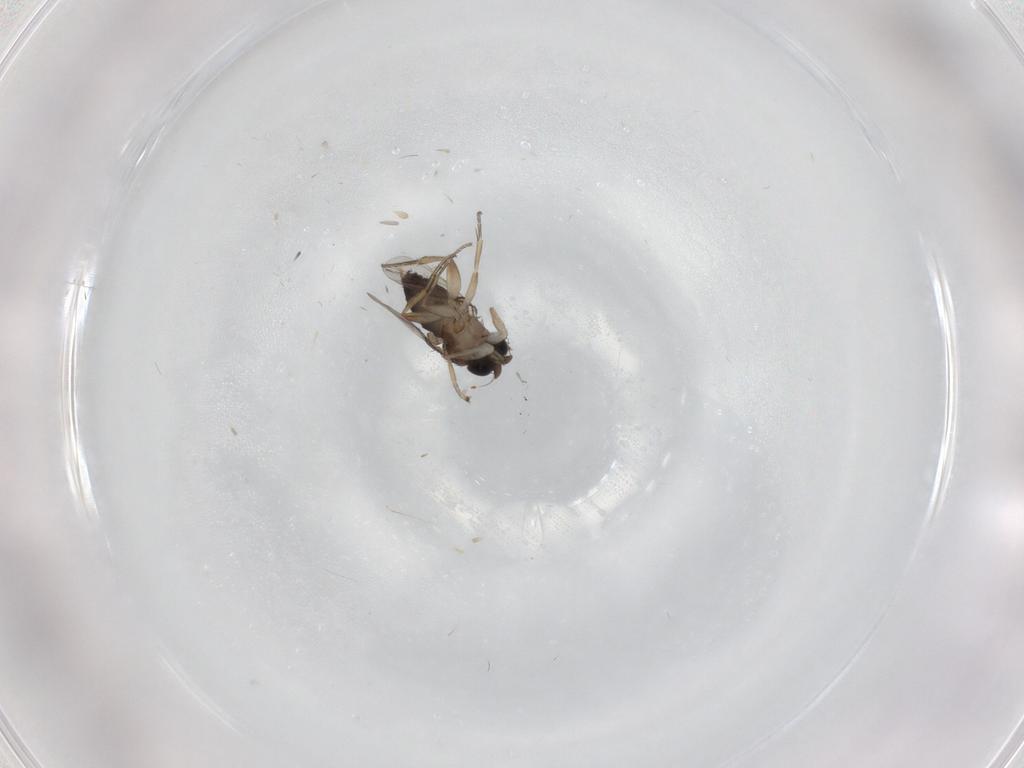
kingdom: Animalia
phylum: Arthropoda
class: Insecta
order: Diptera
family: Phoridae
